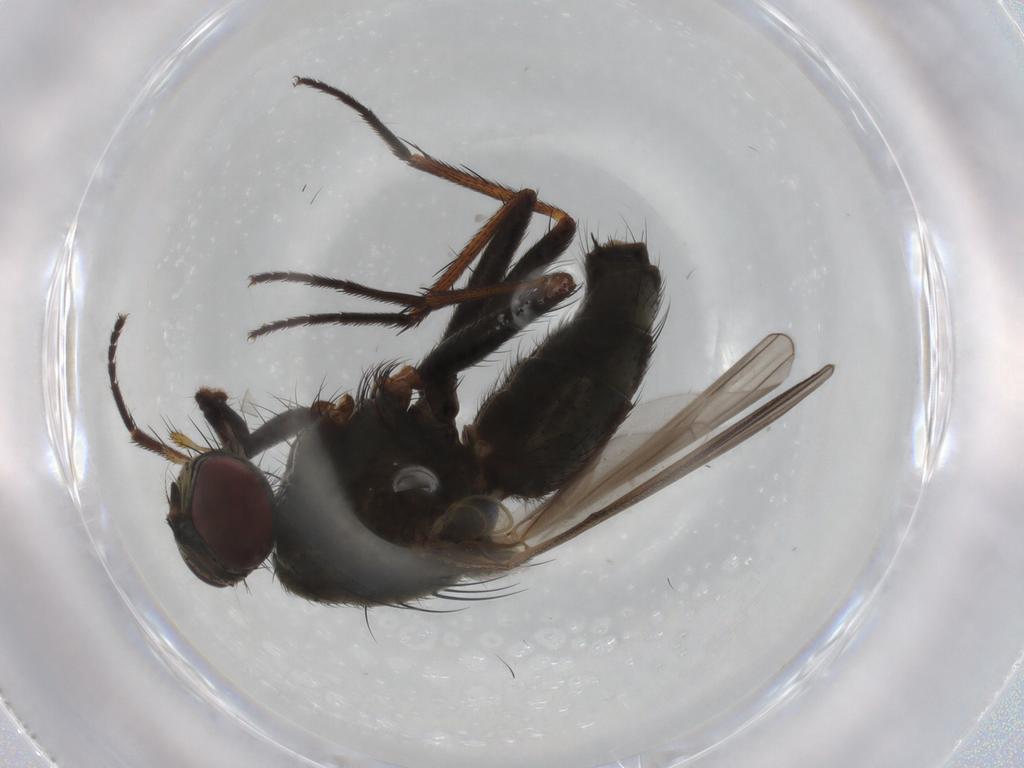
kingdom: Animalia
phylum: Arthropoda
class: Insecta
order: Diptera
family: Muscidae
